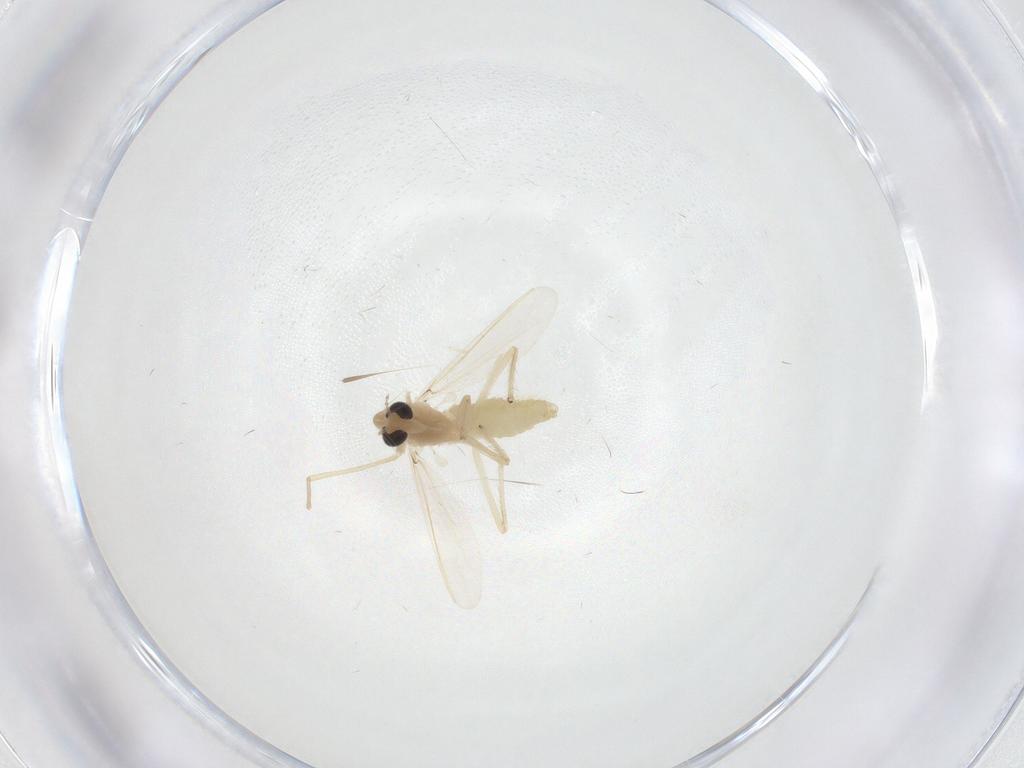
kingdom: Animalia
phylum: Arthropoda
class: Insecta
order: Diptera
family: Chironomidae
